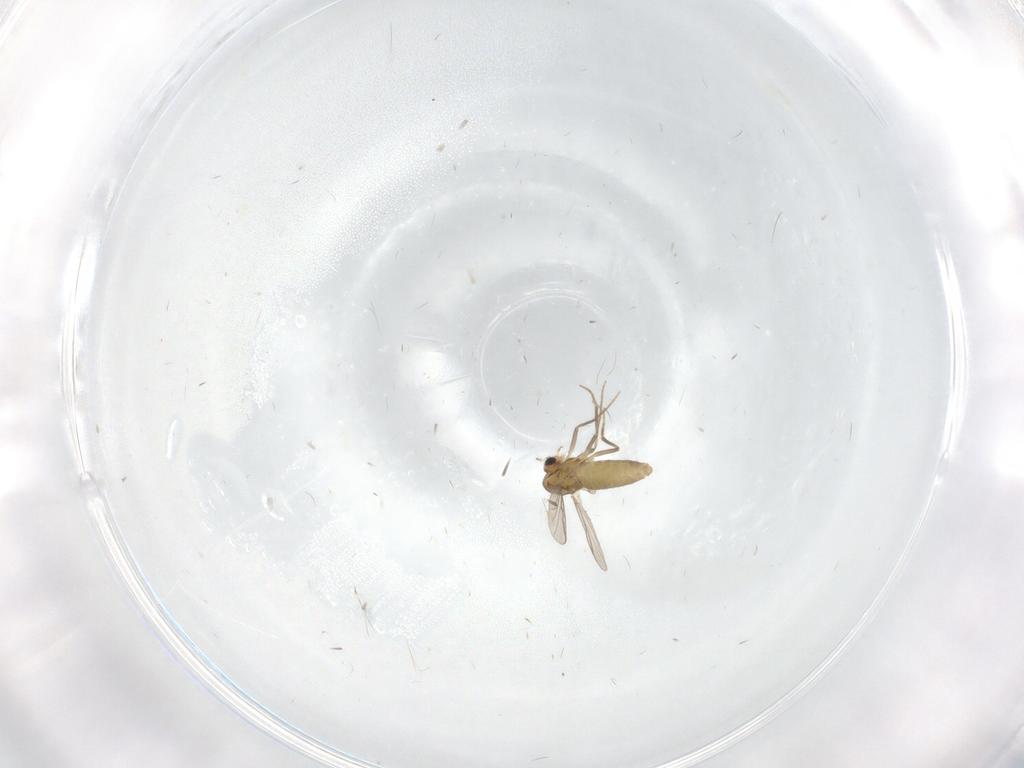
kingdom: Animalia
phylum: Arthropoda
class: Insecta
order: Diptera
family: Chironomidae
